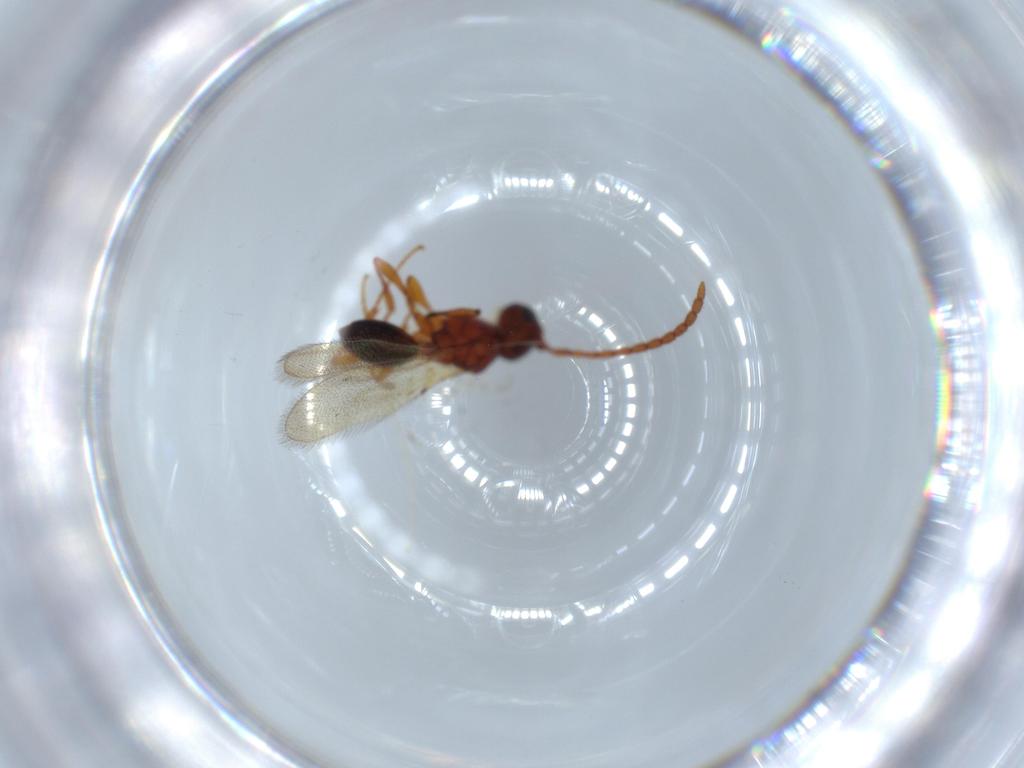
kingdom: Animalia
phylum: Arthropoda
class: Insecta
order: Hymenoptera
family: Diapriidae
